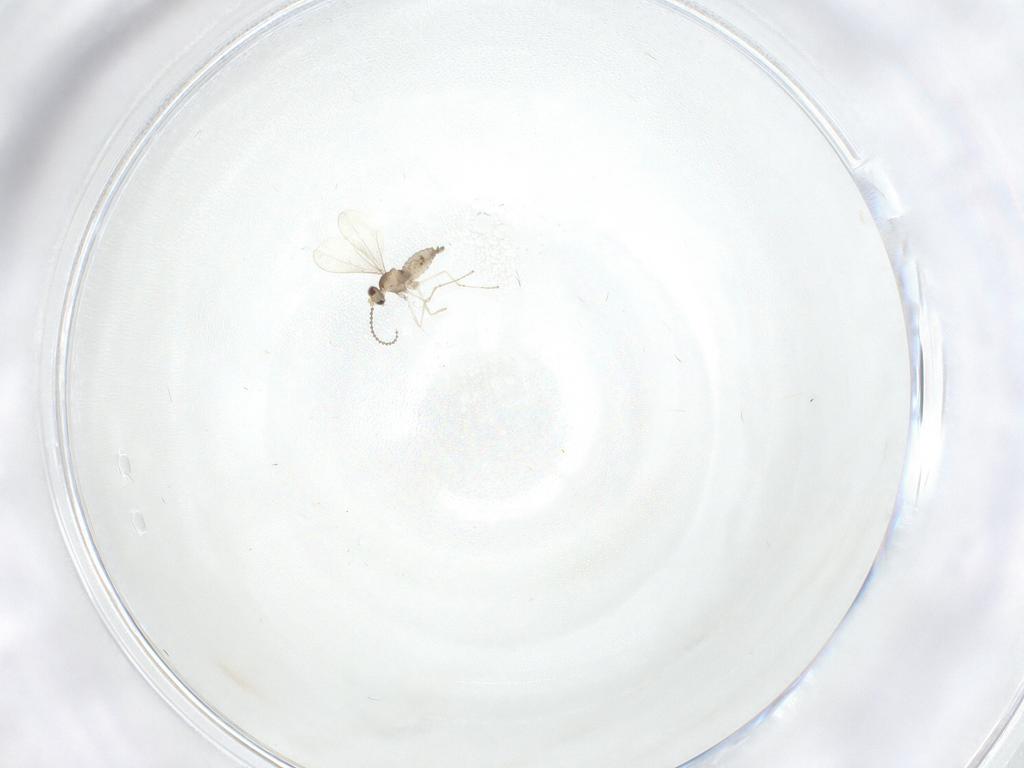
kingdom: Animalia
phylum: Arthropoda
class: Insecta
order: Diptera
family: Cecidomyiidae
